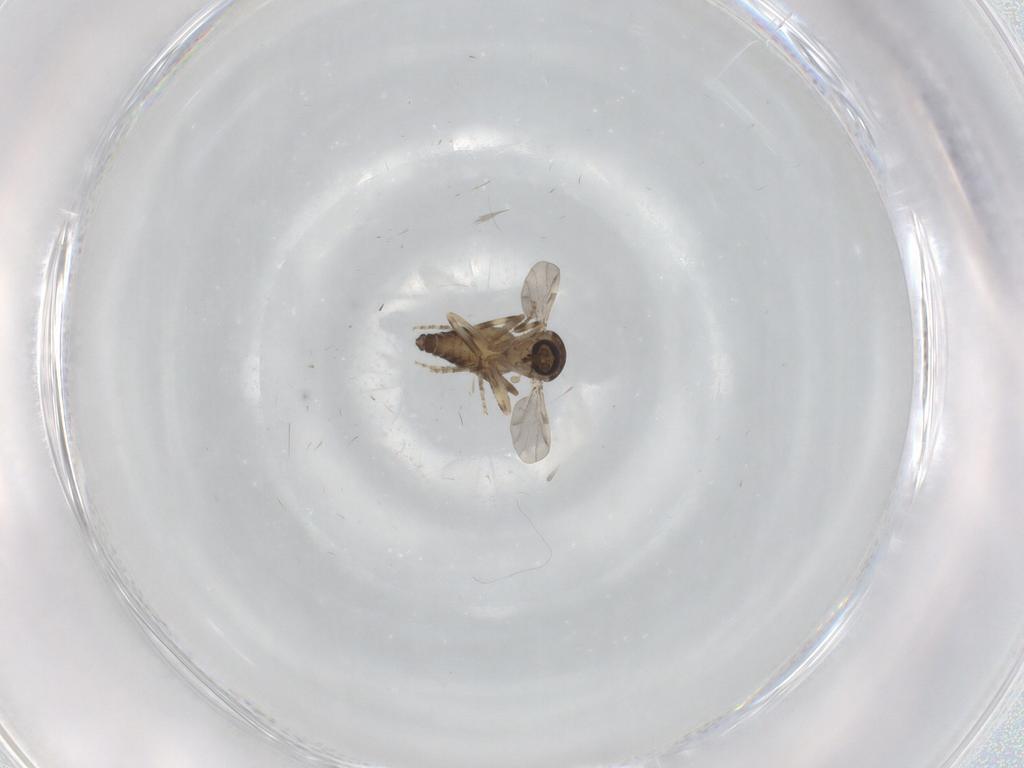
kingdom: Animalia
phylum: Arthropoda
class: Insecta
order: Diptera
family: Ceratopogonidae
